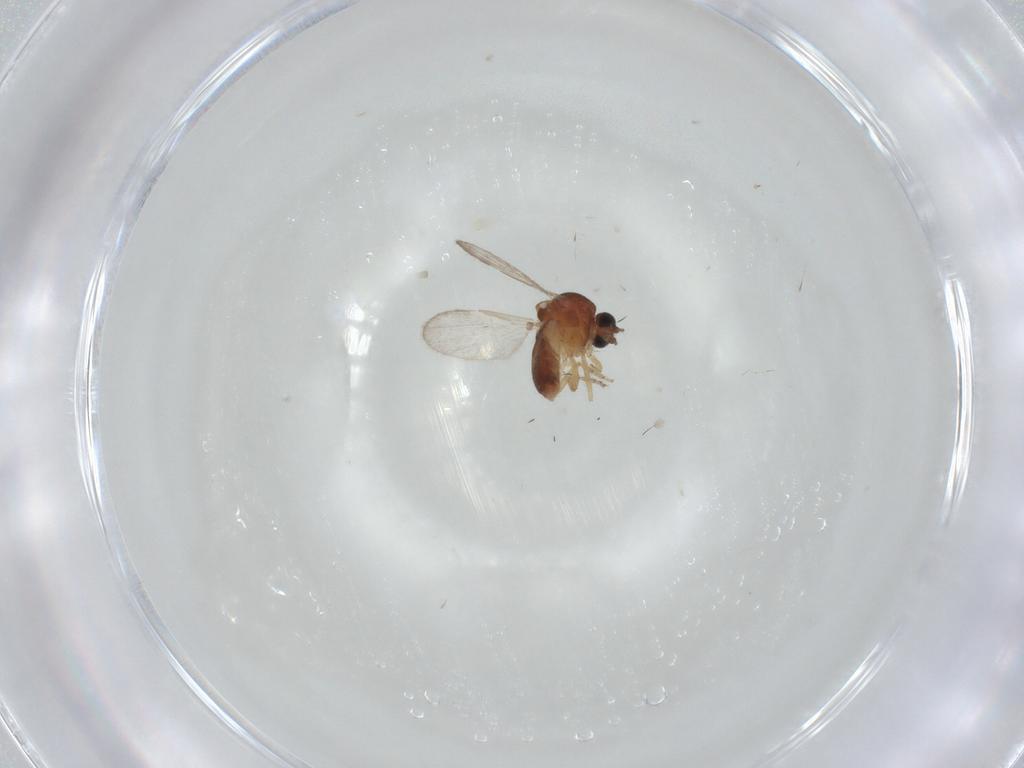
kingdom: Animalia
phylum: Arthropoda
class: Insecta
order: Diptera
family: Ceratopogonidae
